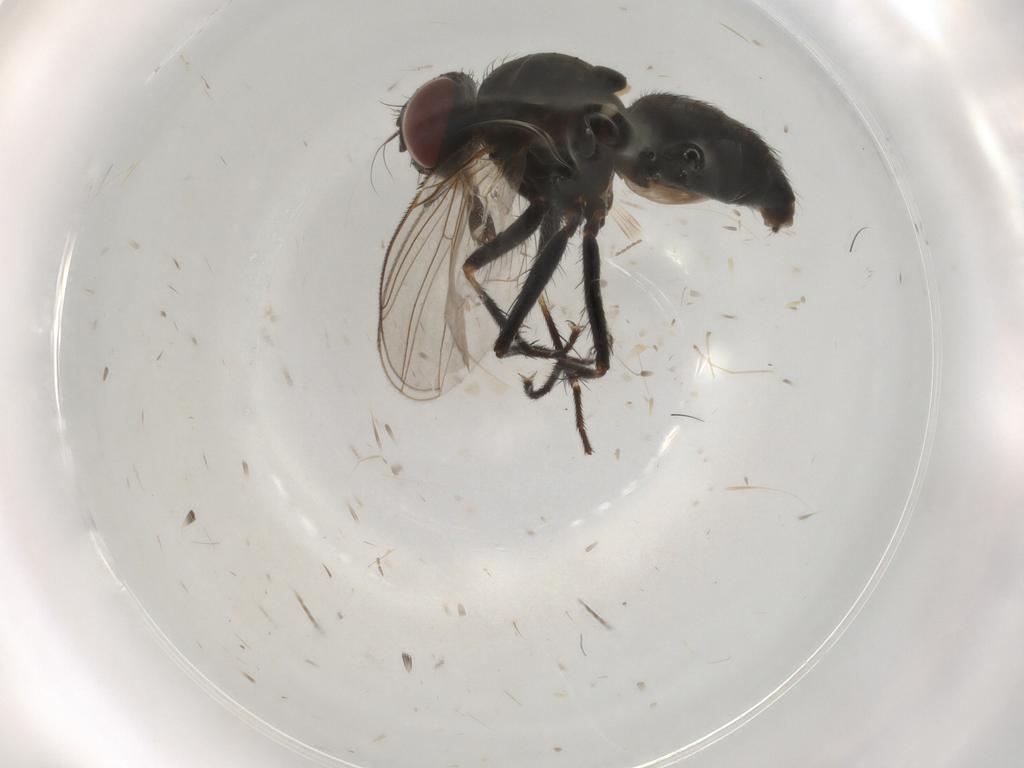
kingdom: Animalia
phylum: Arthropoda
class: Insecta
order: Diptera
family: Muscidae
